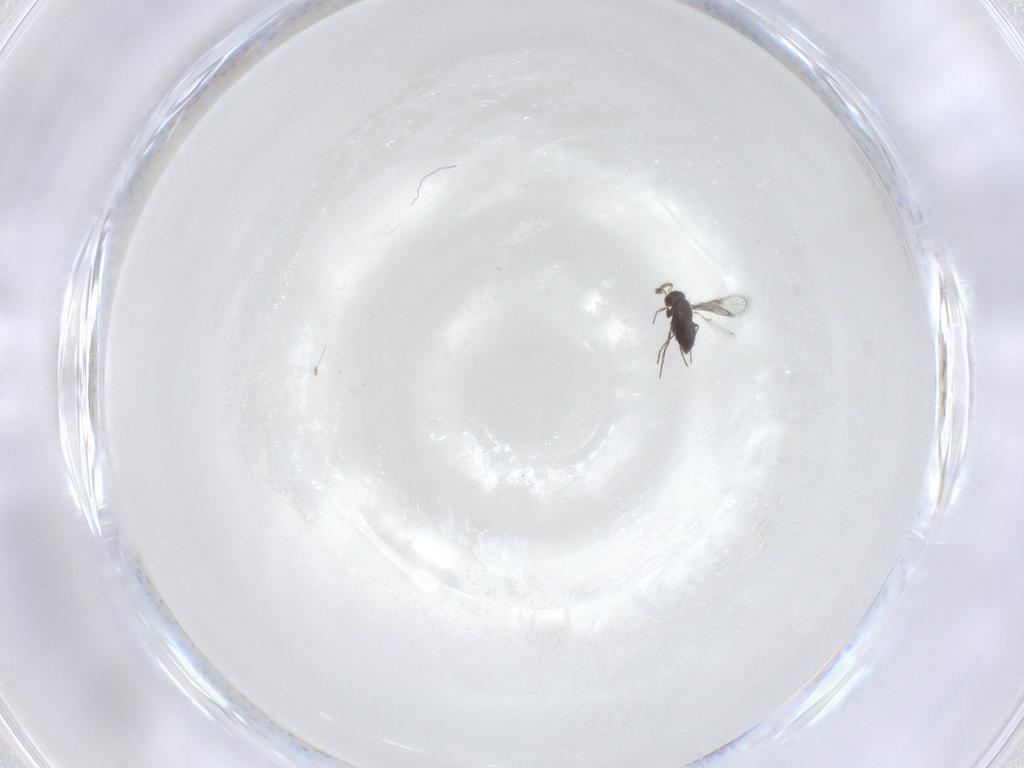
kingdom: Animalia
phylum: Arthropoda
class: Insecta
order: Hymenoptera
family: Trichogrammatidae
